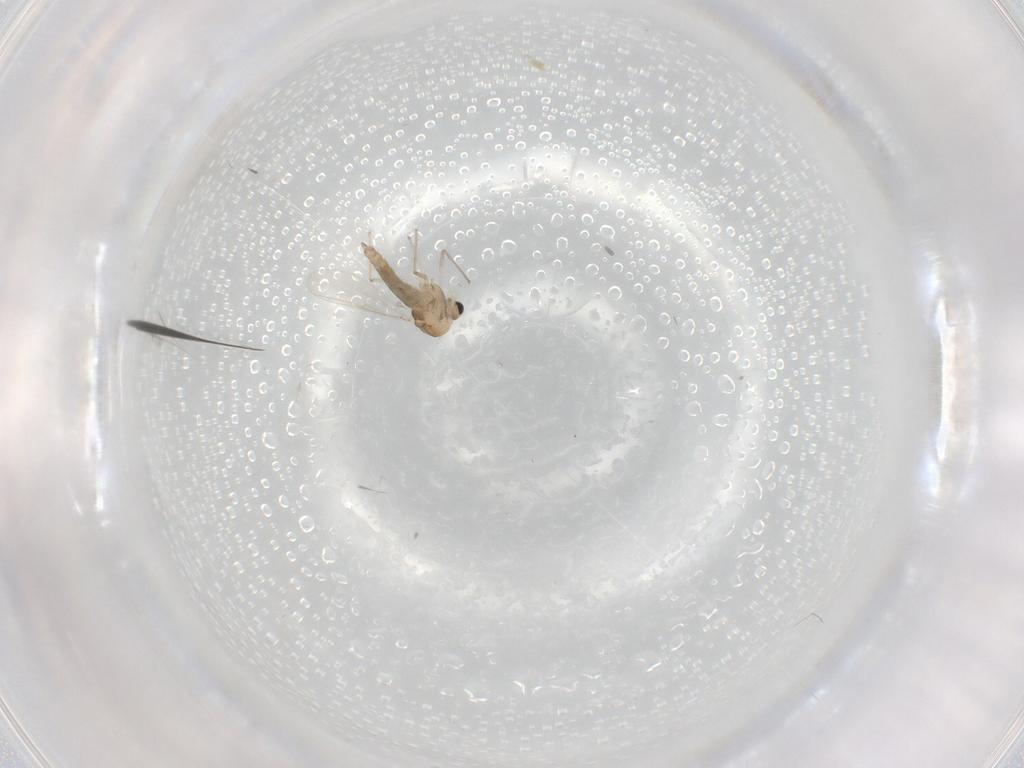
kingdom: Animalia
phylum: Arthropoda
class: Insecta
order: Diptera
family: Chironomidae
